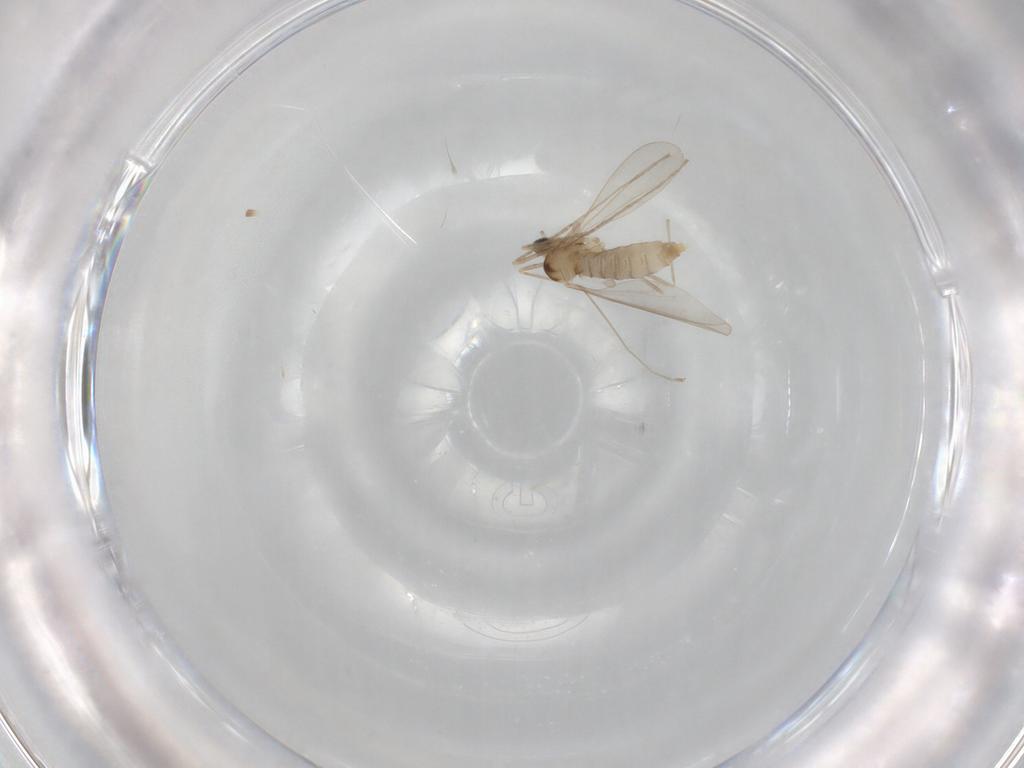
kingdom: Animalia
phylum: Arthropoda
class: Insecta
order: Diptera
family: Cecidomyiidae
